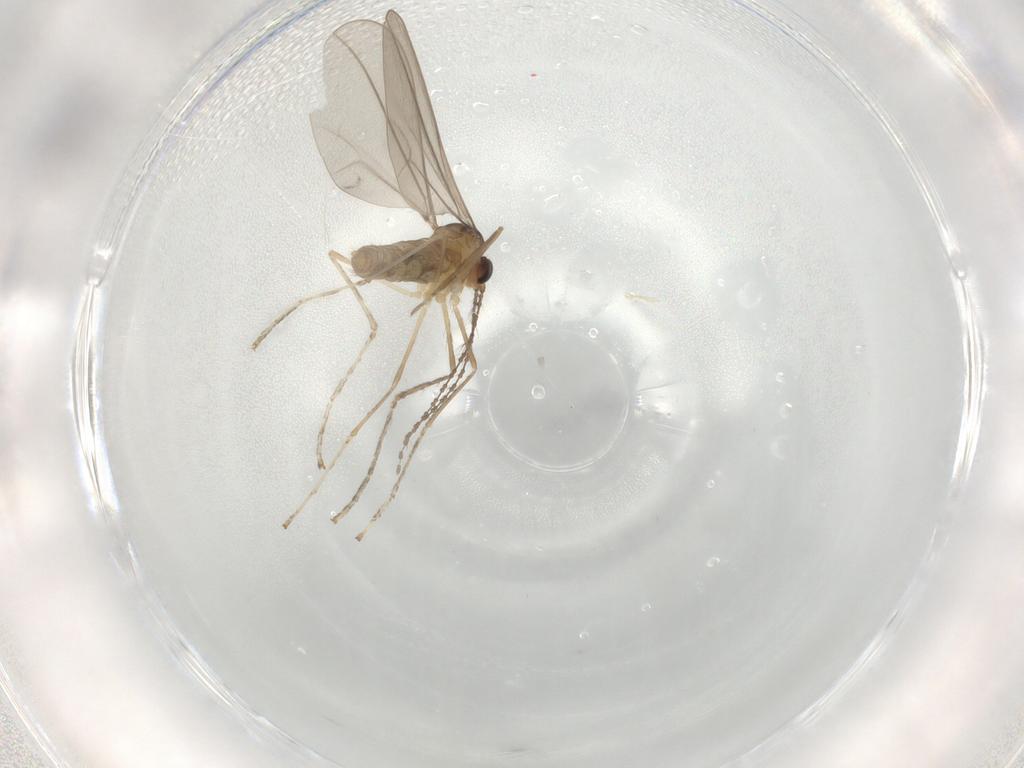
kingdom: Animalia
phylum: Arthropoda
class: Insecta
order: Diptera
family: Cecidomyiidae
